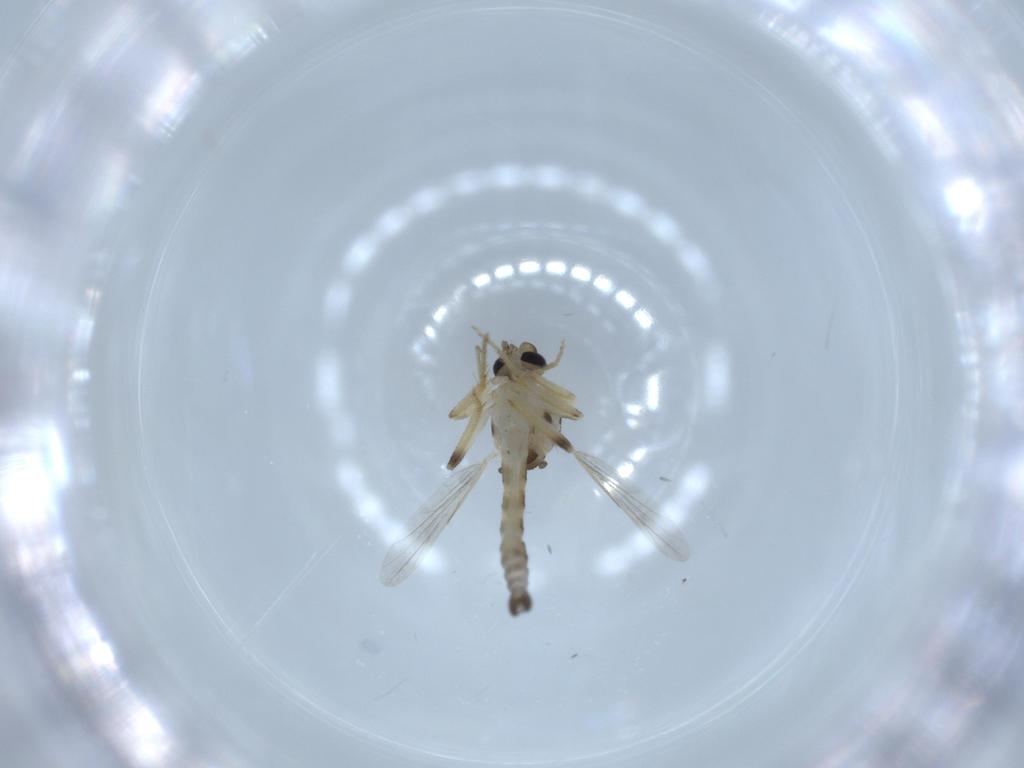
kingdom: Animalia
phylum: Arthropoda
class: Insecta
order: Diptera
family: Ceratopogonidae
